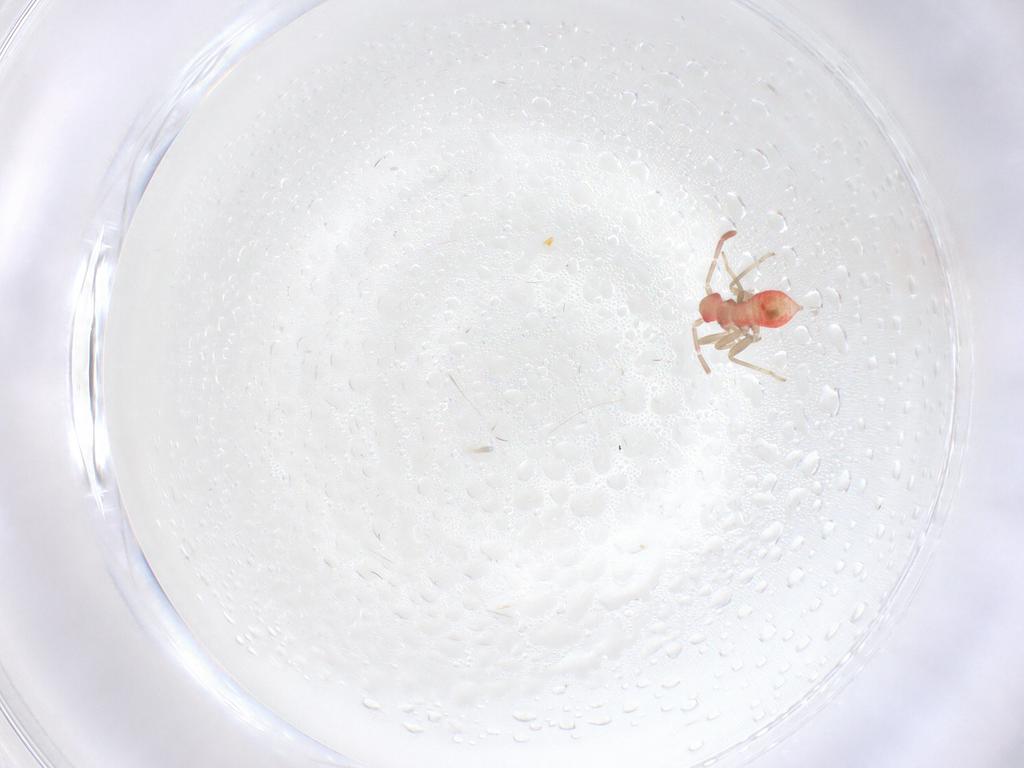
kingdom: Animalia
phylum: Arthropoda
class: Insecta
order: Hemiptera
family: Miridae
